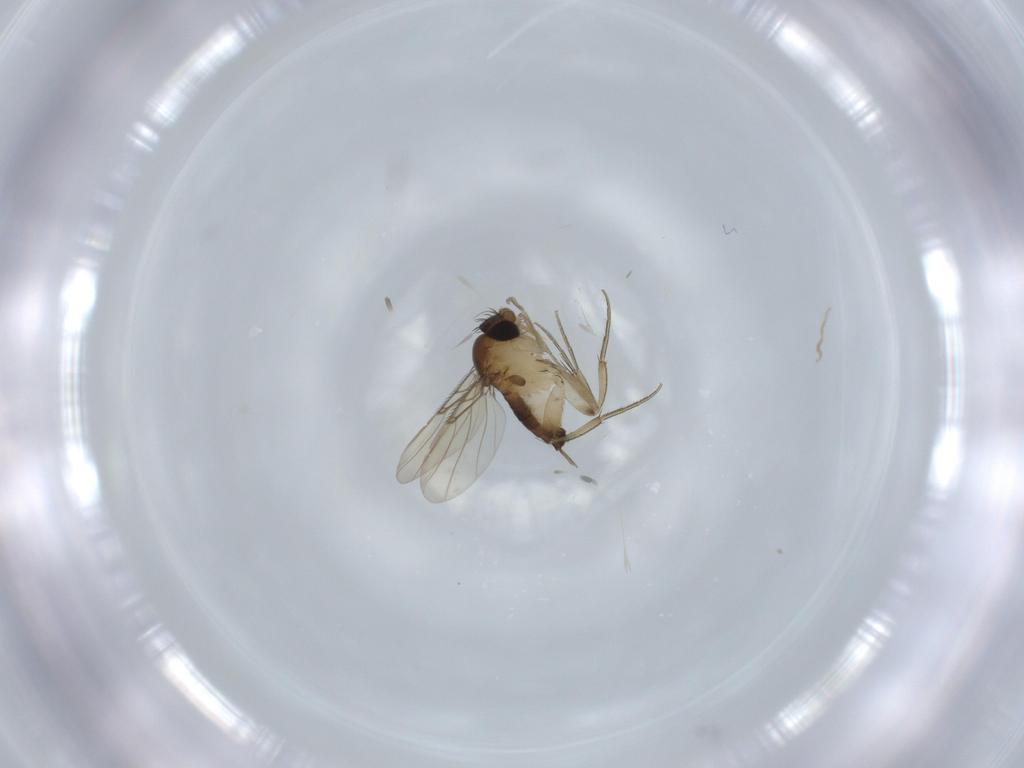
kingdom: Animalia
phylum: Arthropoda
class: Insecta
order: Diptera
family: Phoridae
